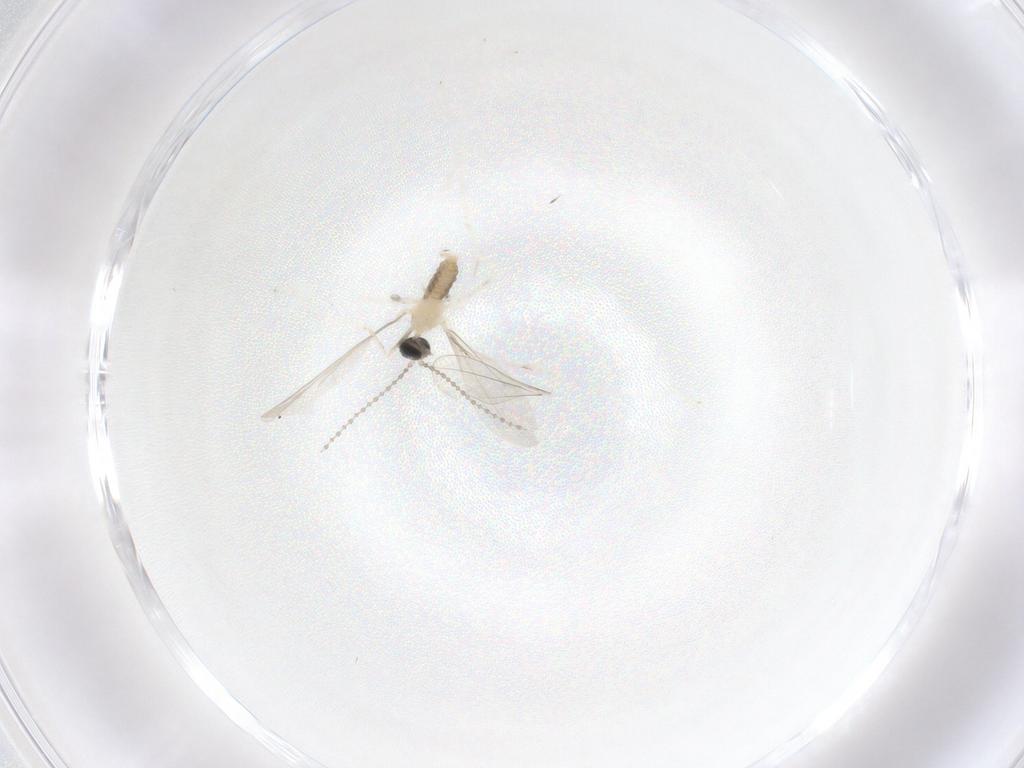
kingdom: Animalia
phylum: Arthropoda
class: Insecta
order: Diptera
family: Cecidomyiidae
